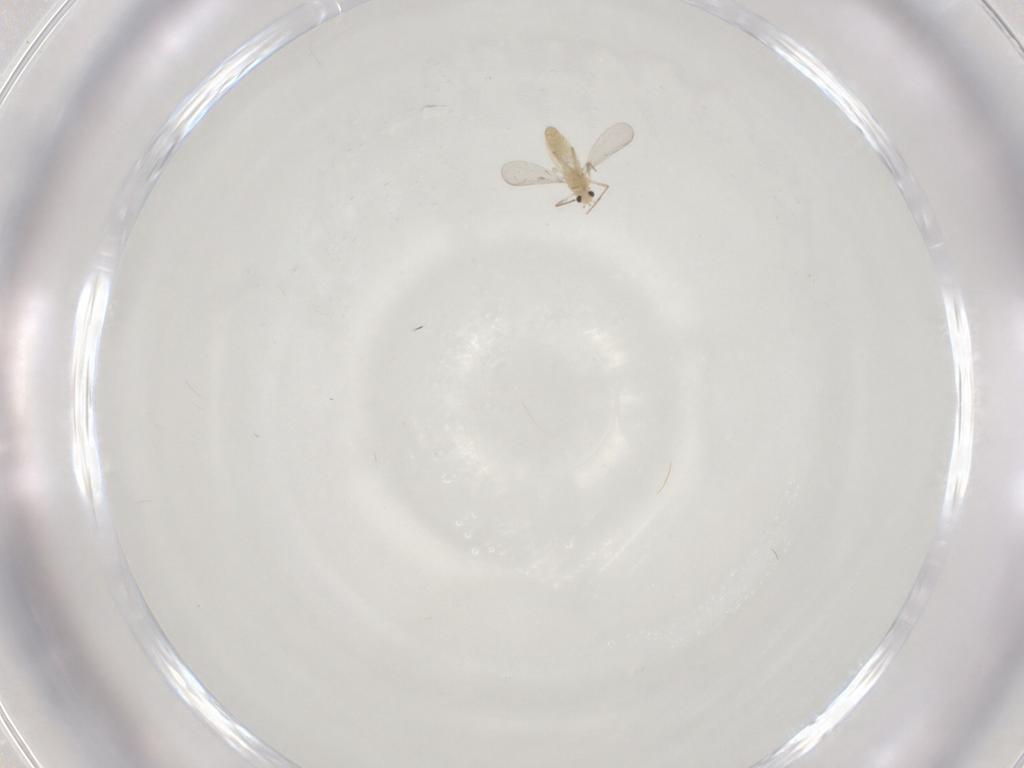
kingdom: Animalia
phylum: Arthropoda
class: Insecta
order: Diptera
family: Chironomidae
